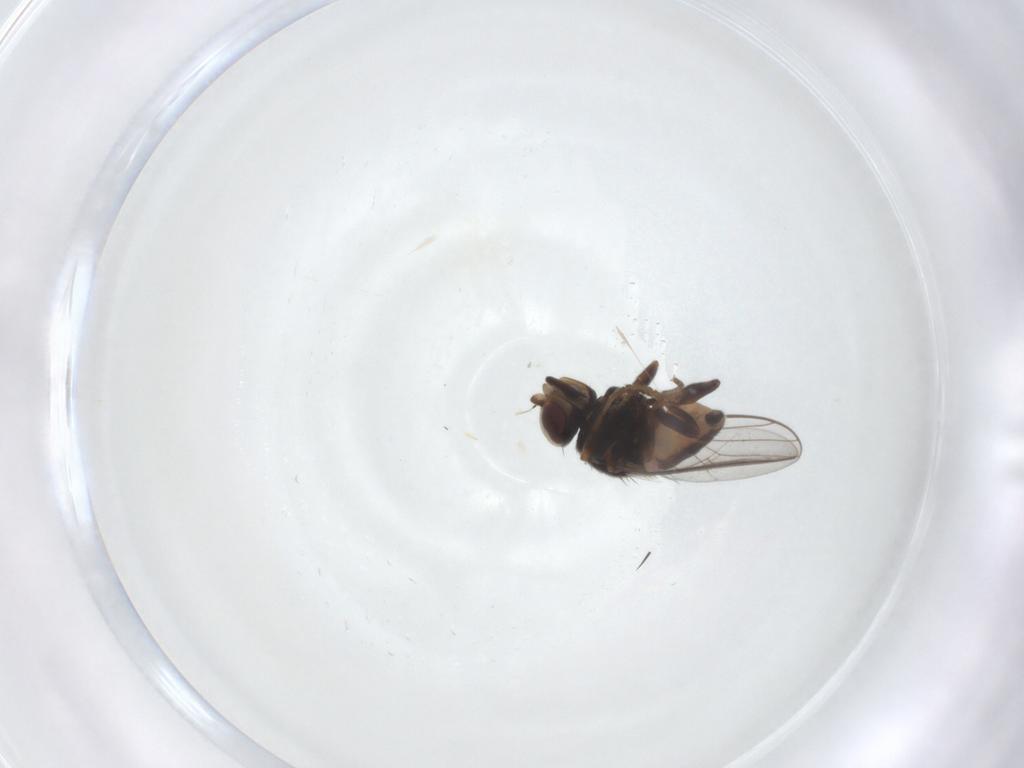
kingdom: Animalia
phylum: Arthropoda
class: Insecta
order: Diptera
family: Chloropidae
